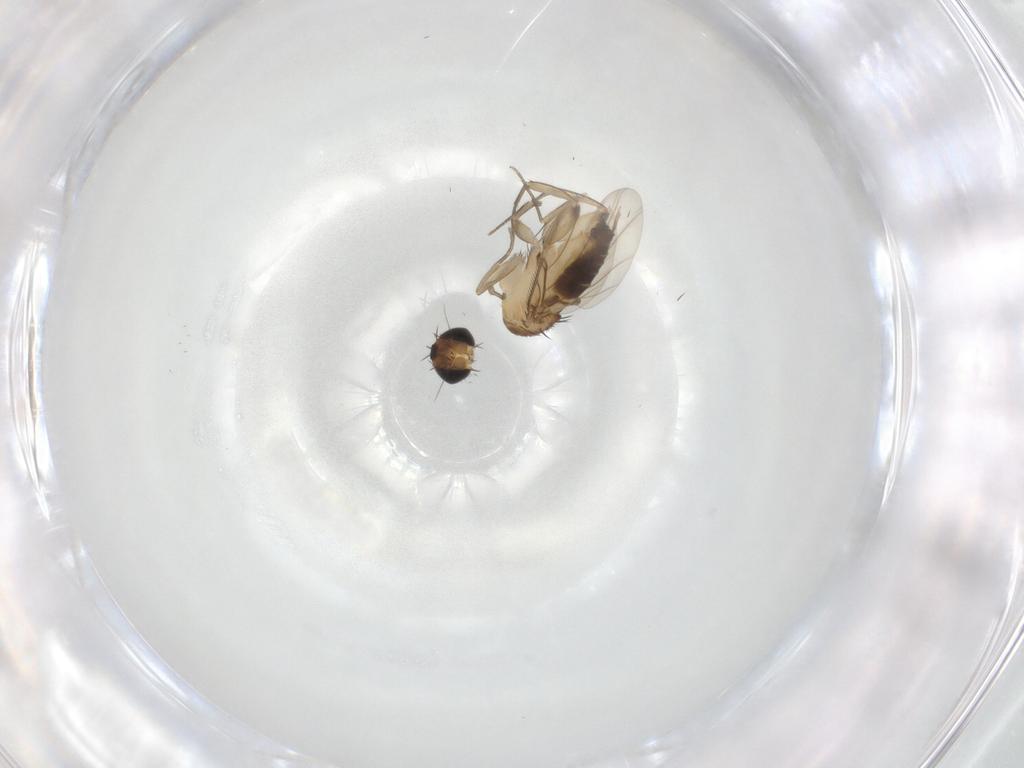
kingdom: Animalia
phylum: Arthropoda
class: Insecta
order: Diptera
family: Phoridae
